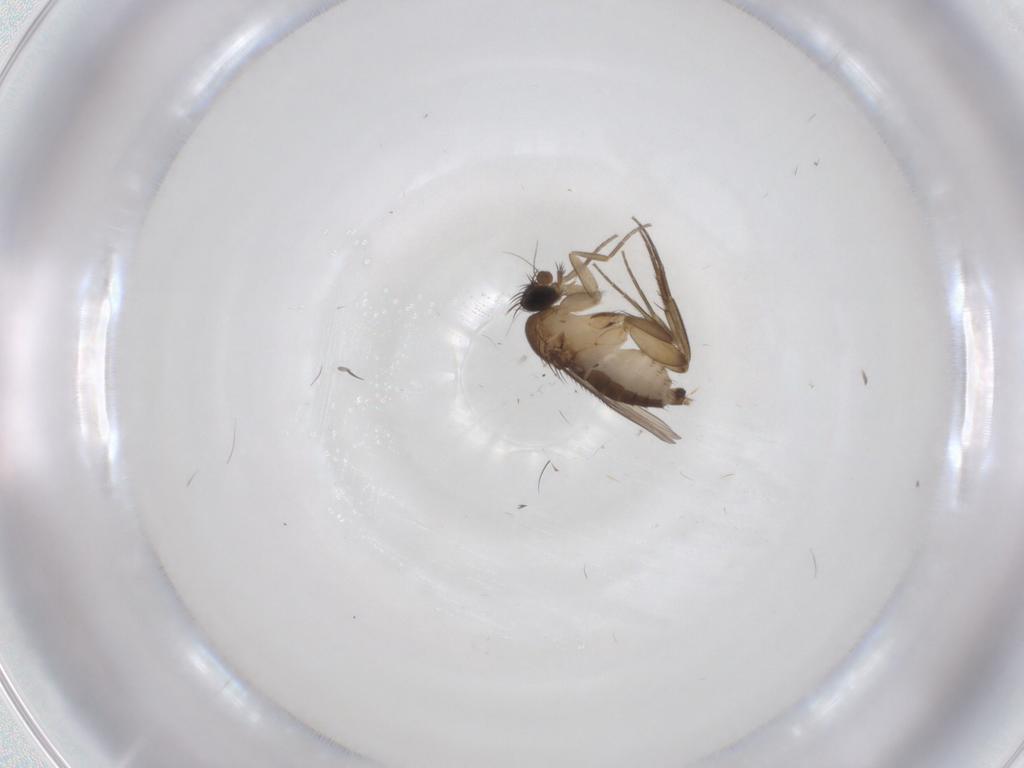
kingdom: Animalia
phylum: Arthropoda
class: Insecta
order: Diptera
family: Phoridae
